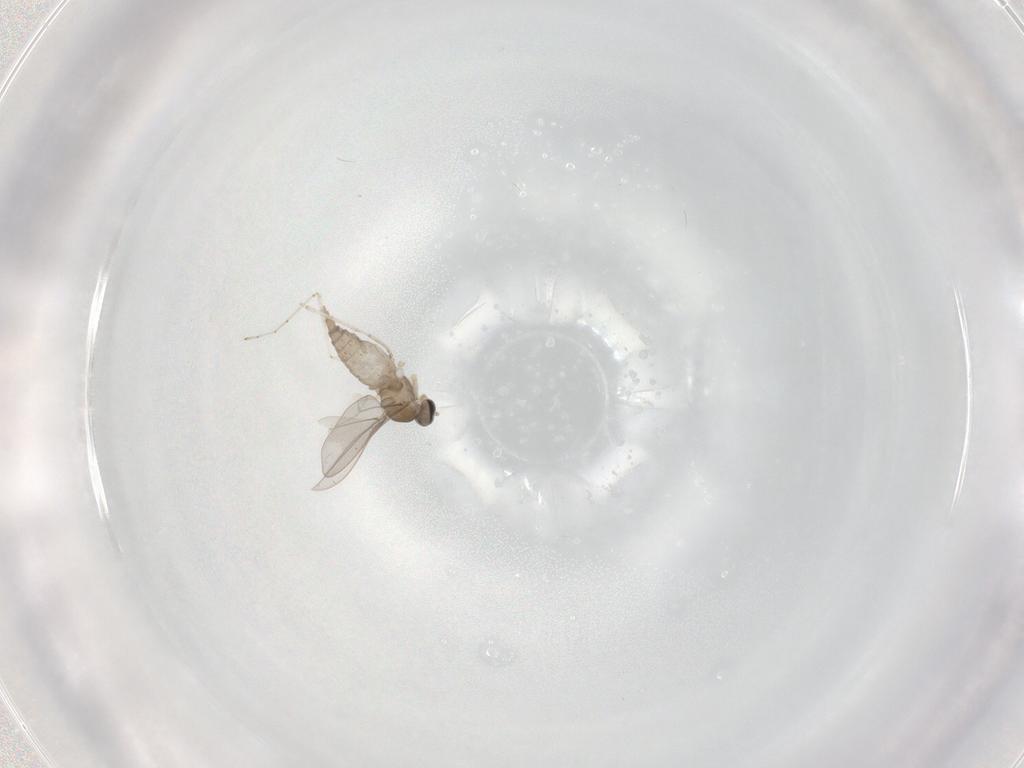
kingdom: Animalia
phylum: Arthropoda
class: Insecta
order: Diptera
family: Cecidomyiidae
